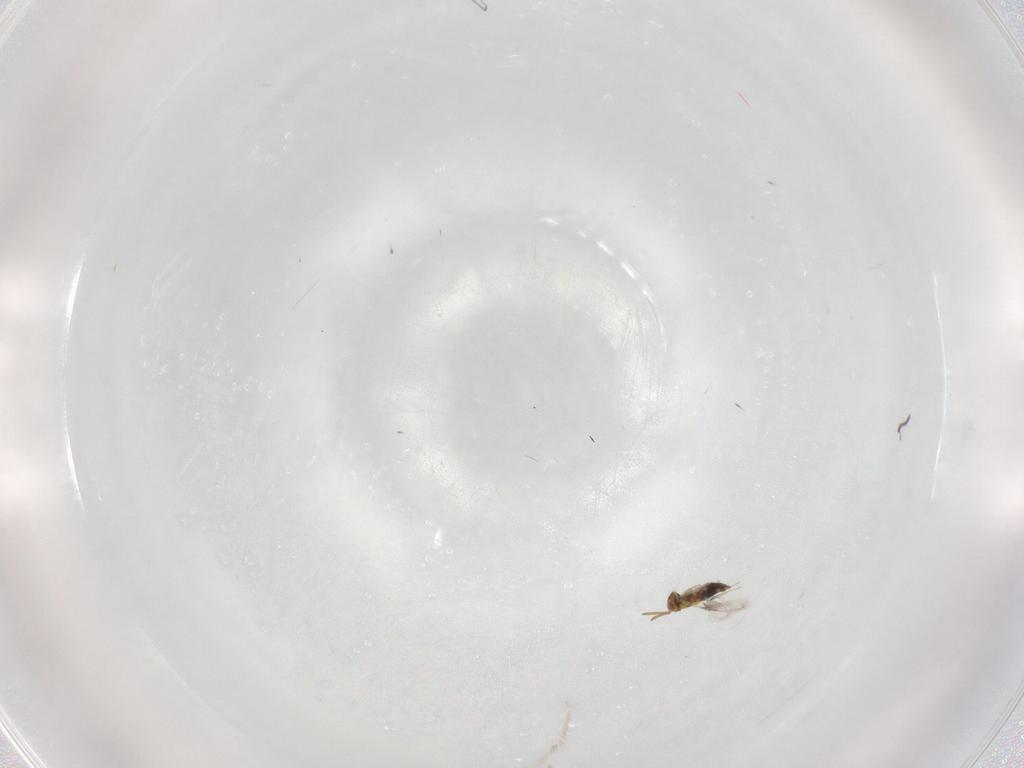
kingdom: Animalia
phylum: Arthropoda
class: Insecta
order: Hymenoptera
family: Aphelinidae
